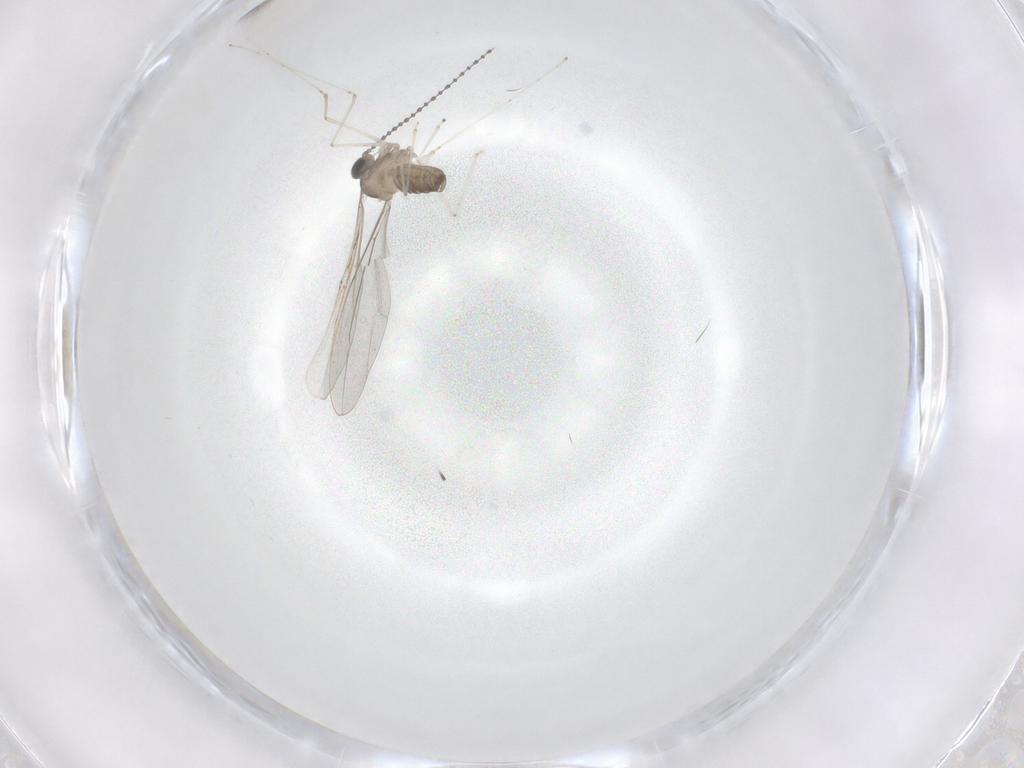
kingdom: Animalia
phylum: Arthropoda
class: Insecta
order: Diptera
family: Cecidomyiidae
